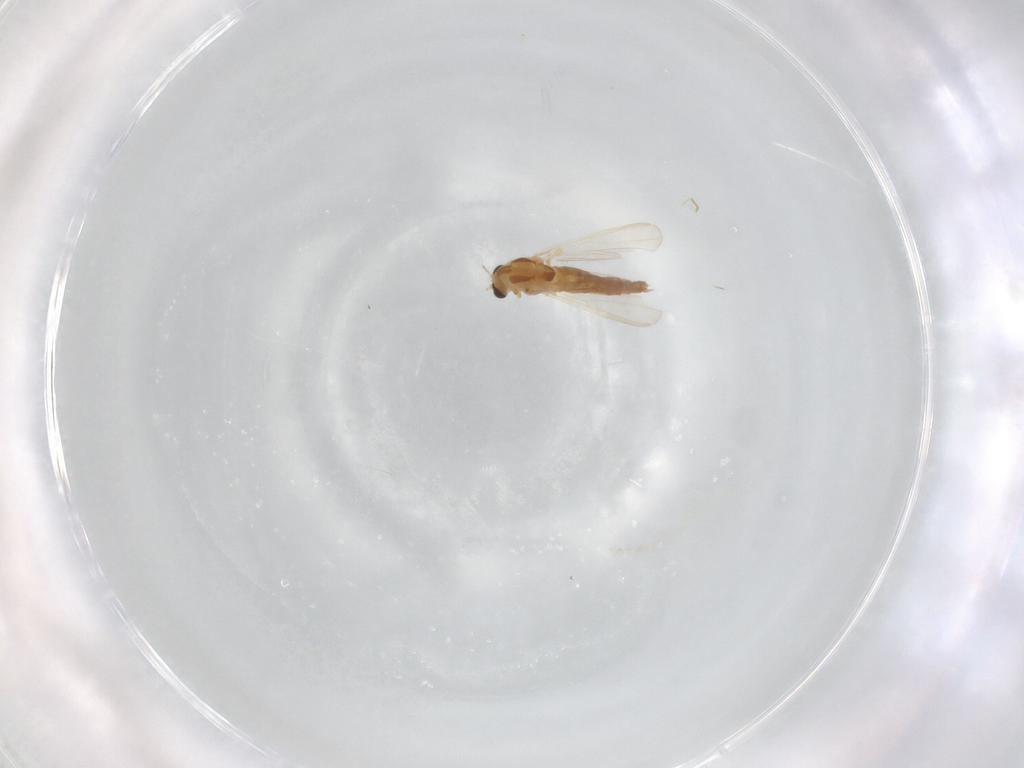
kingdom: Animalia
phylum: Arthropoda
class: Insecta
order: Diptera
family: Chironomidae
